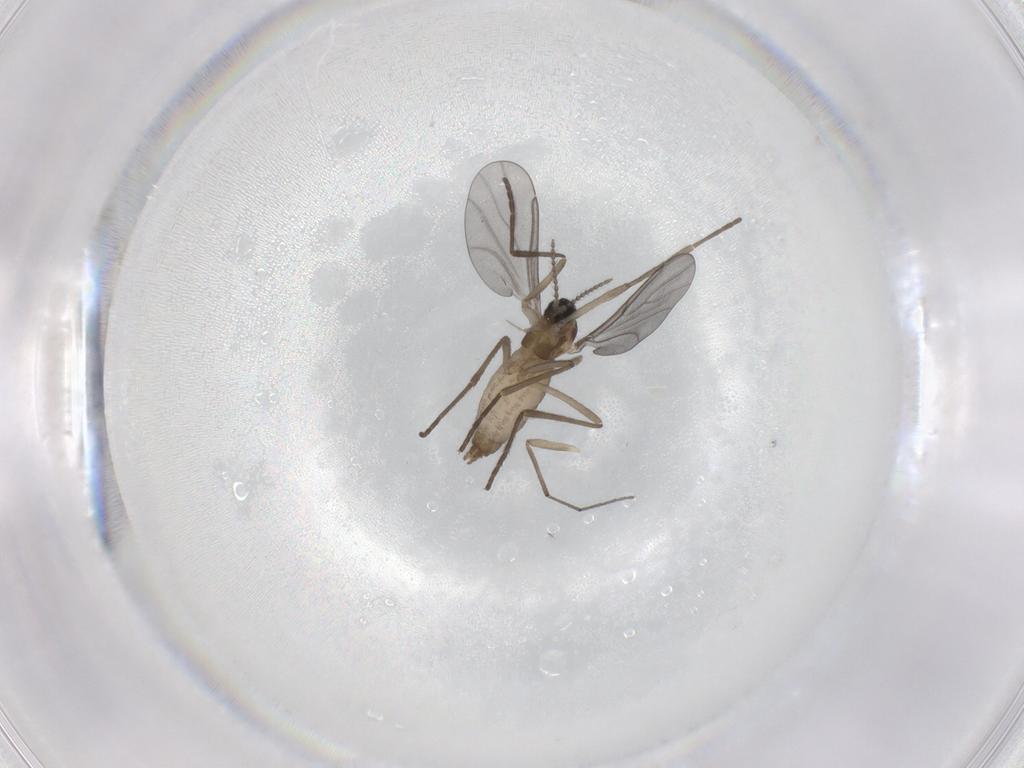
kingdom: Animalia
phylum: Arthropoda
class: Insecta
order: Diptera
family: Cecidomyiidae
